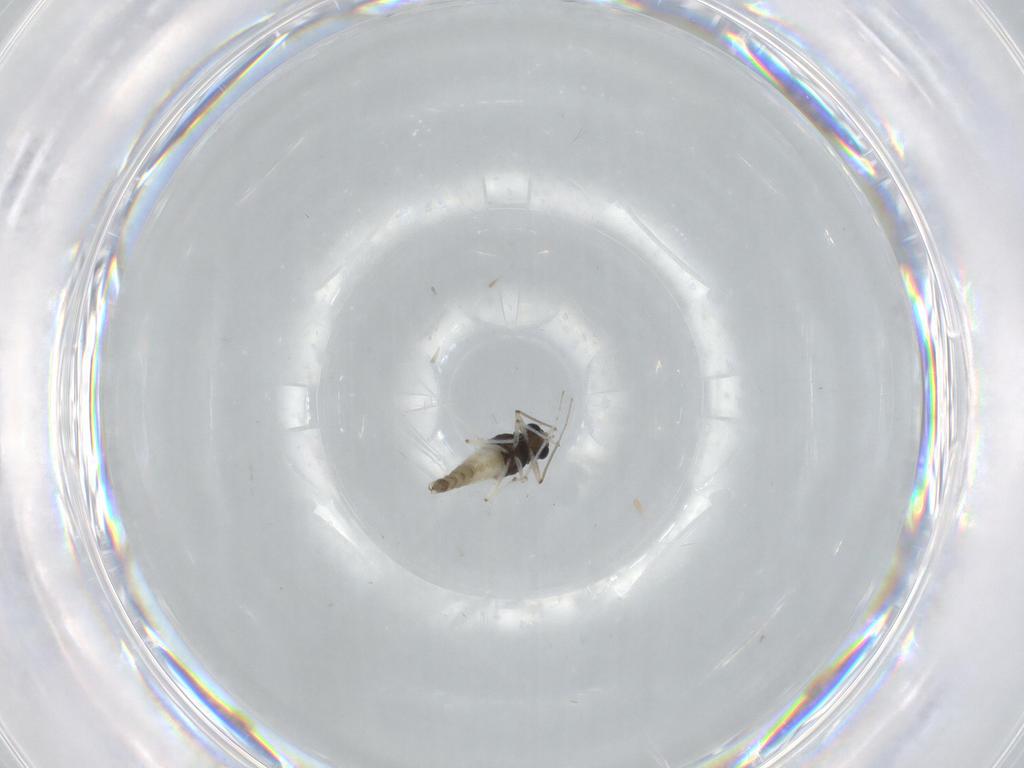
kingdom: Animalia
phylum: Arthropoda
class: Insecta
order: Diptera
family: Chironomidae
